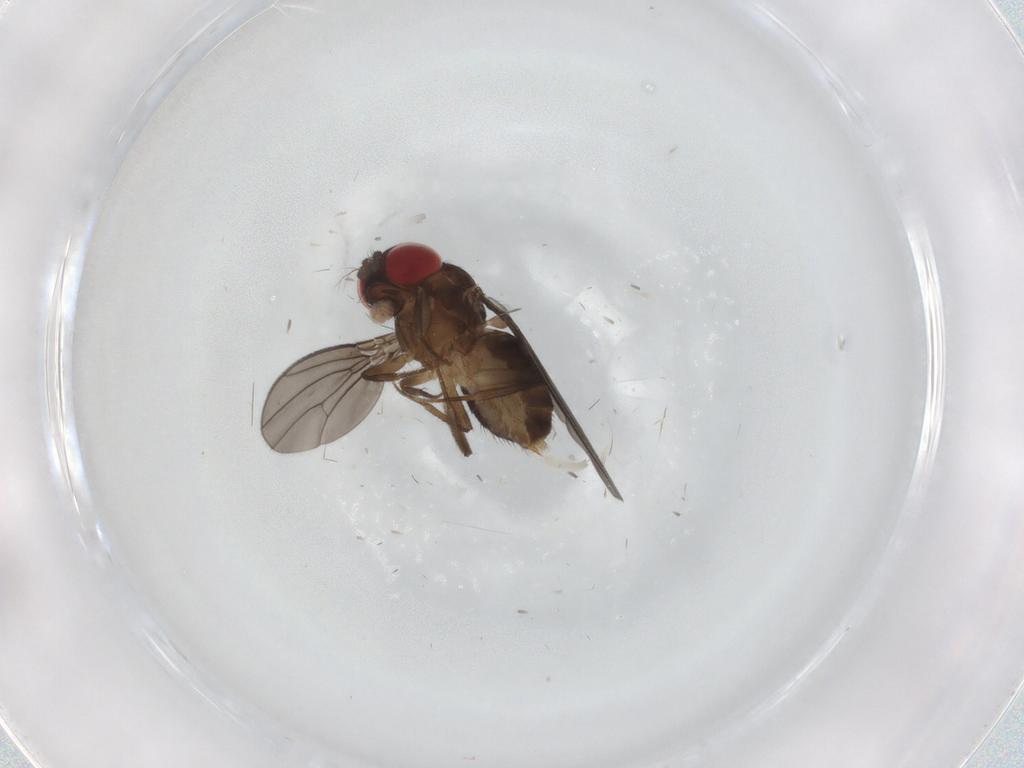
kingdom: Animalia
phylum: Arthropoda
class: Insecta
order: Diptera
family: Drosophilidae
